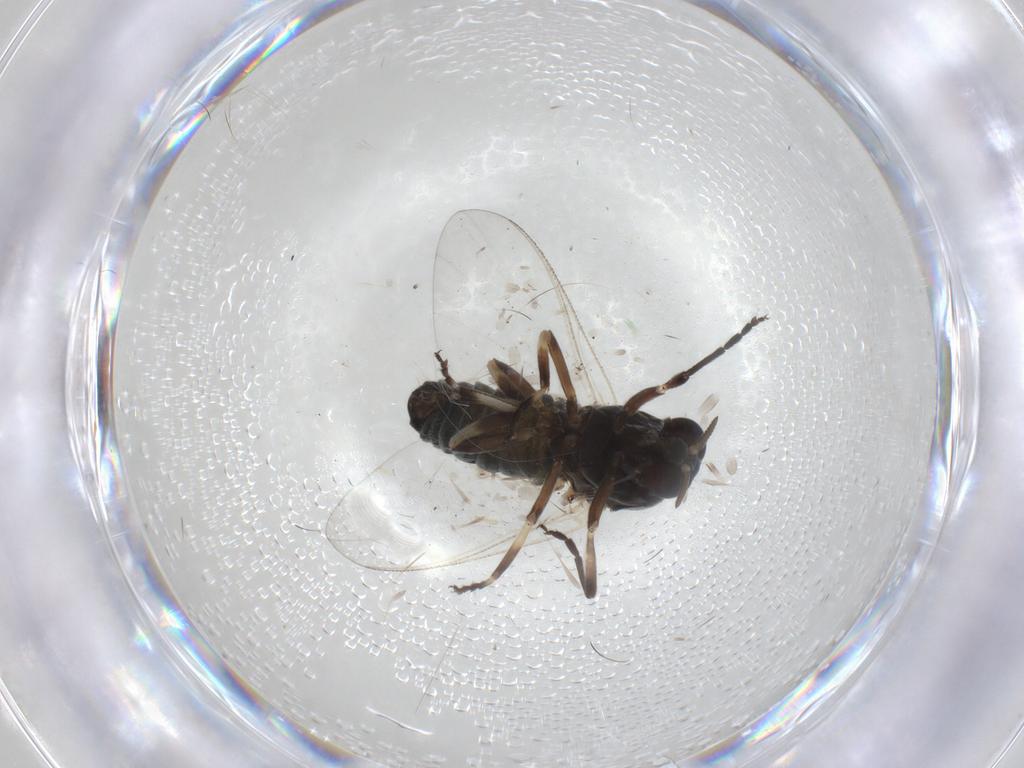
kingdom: Animalia
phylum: Arthropoda
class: Insecta
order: Diptera
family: Simuliidae
